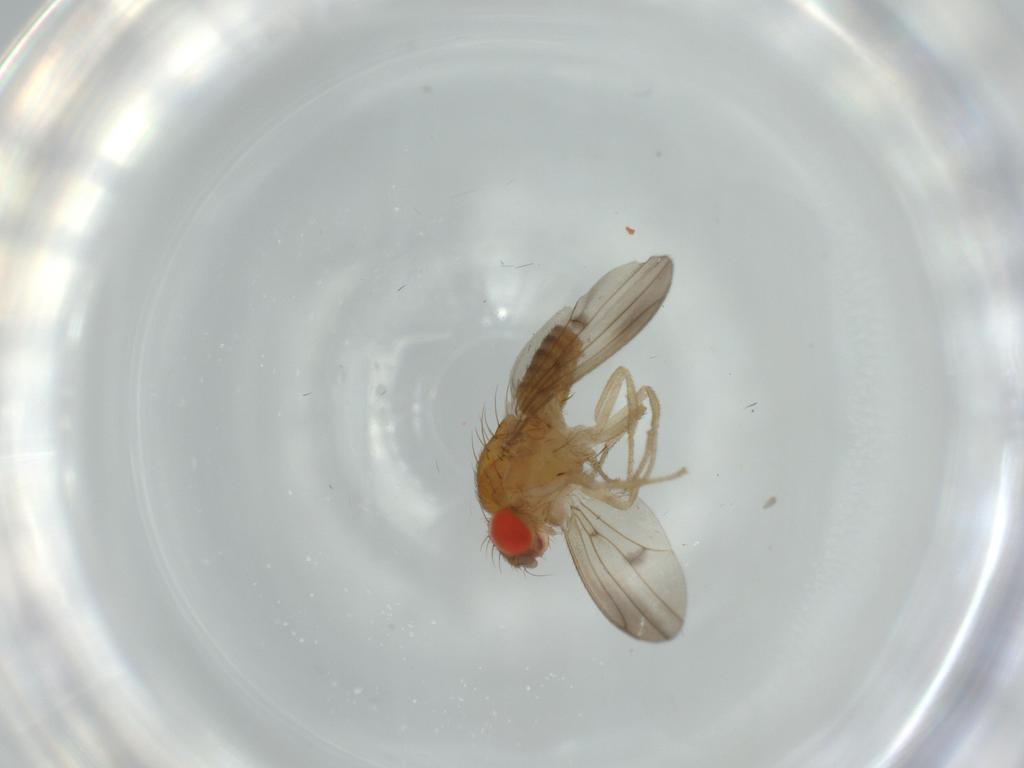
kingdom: Animalia
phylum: Arthropoda
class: Insecta
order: Diptera
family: Drosophilidae
